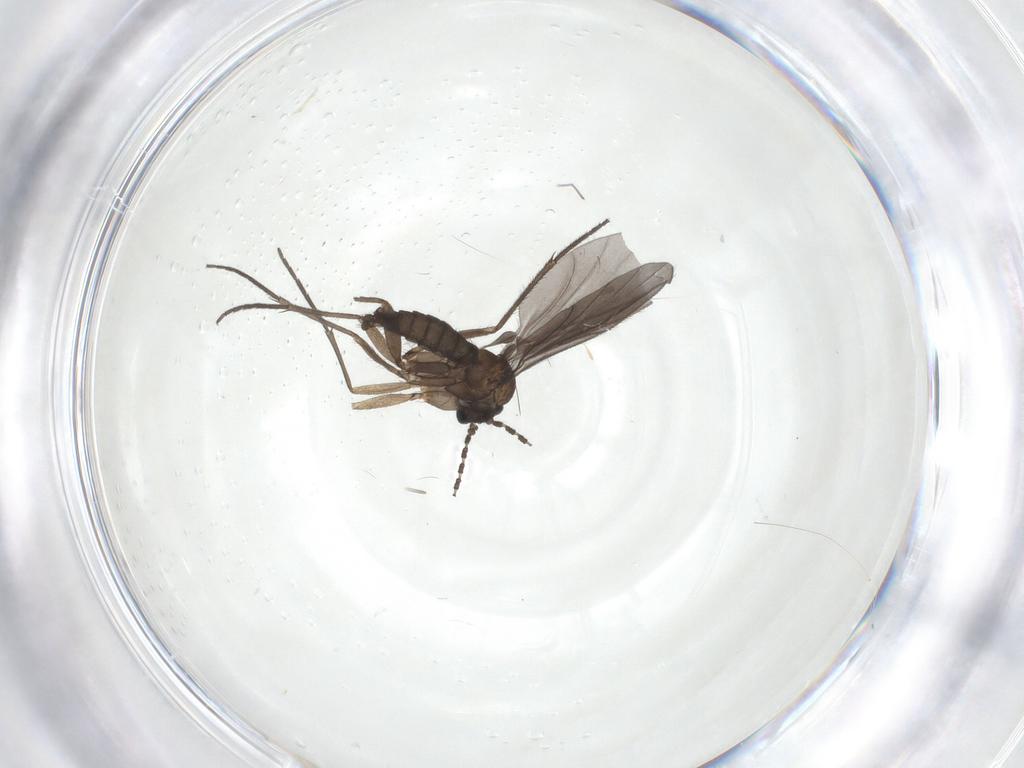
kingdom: Animalia
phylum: Arthropoda
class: Insecta
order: Diptera
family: Sciaridae
